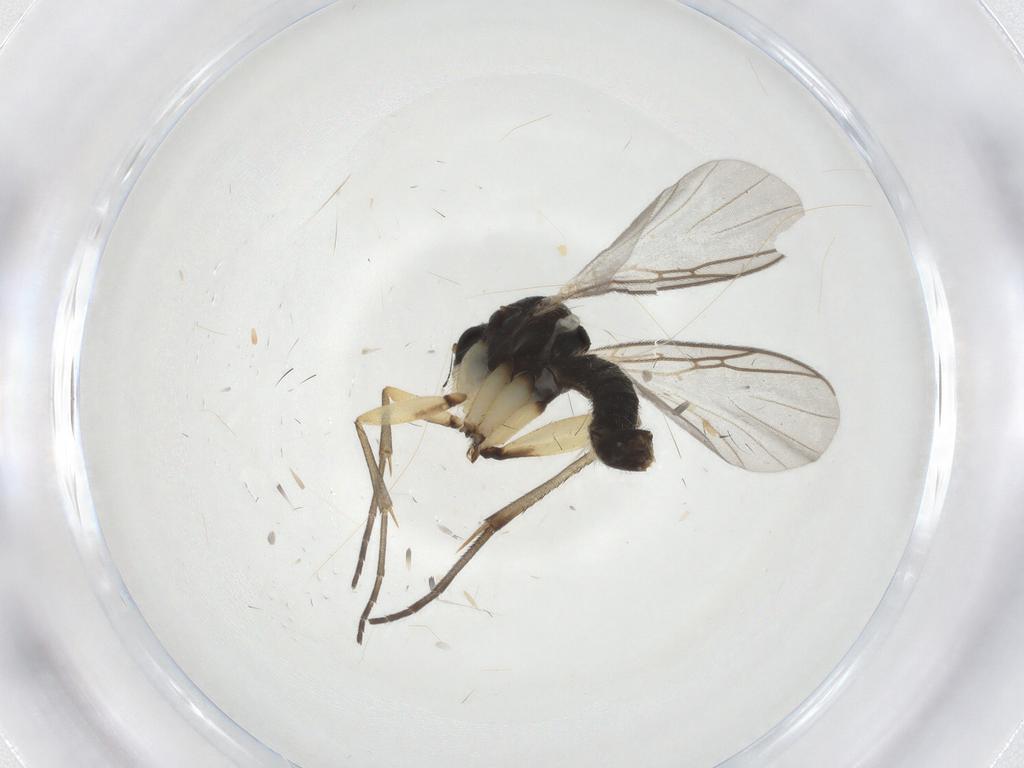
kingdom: Animalia
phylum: Arthropoda
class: Insecta
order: Diptera
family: Mycetophilidae
